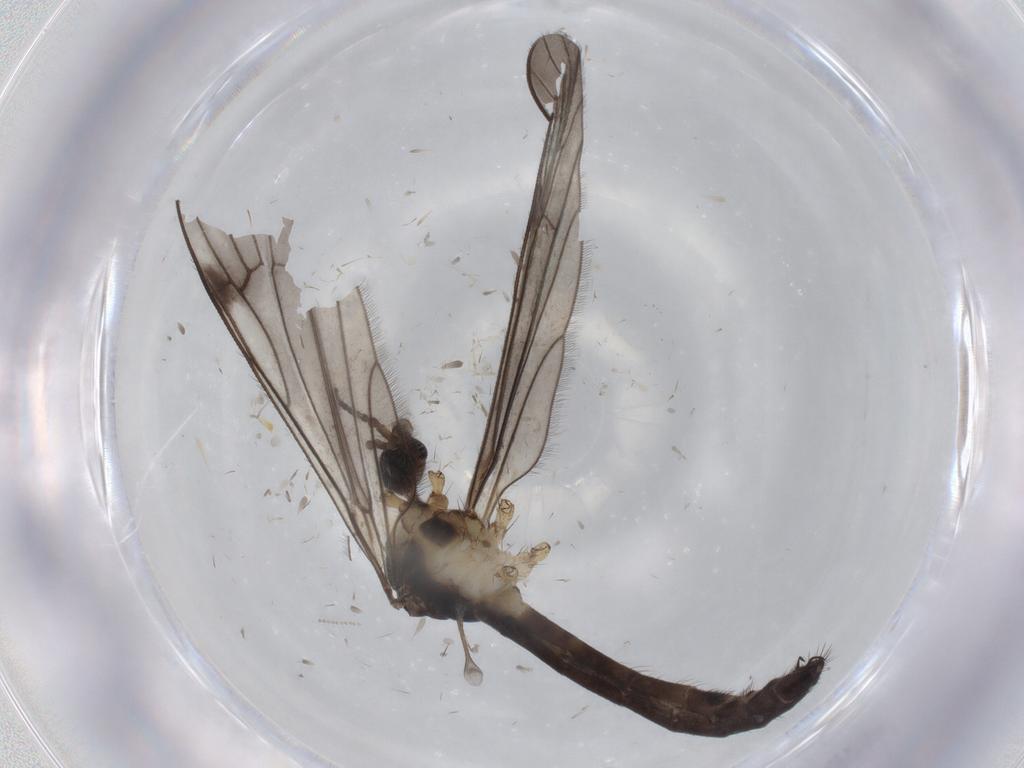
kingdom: Animalia
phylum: Arthropoda
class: Insecta
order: Diptera
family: Limoniidae
